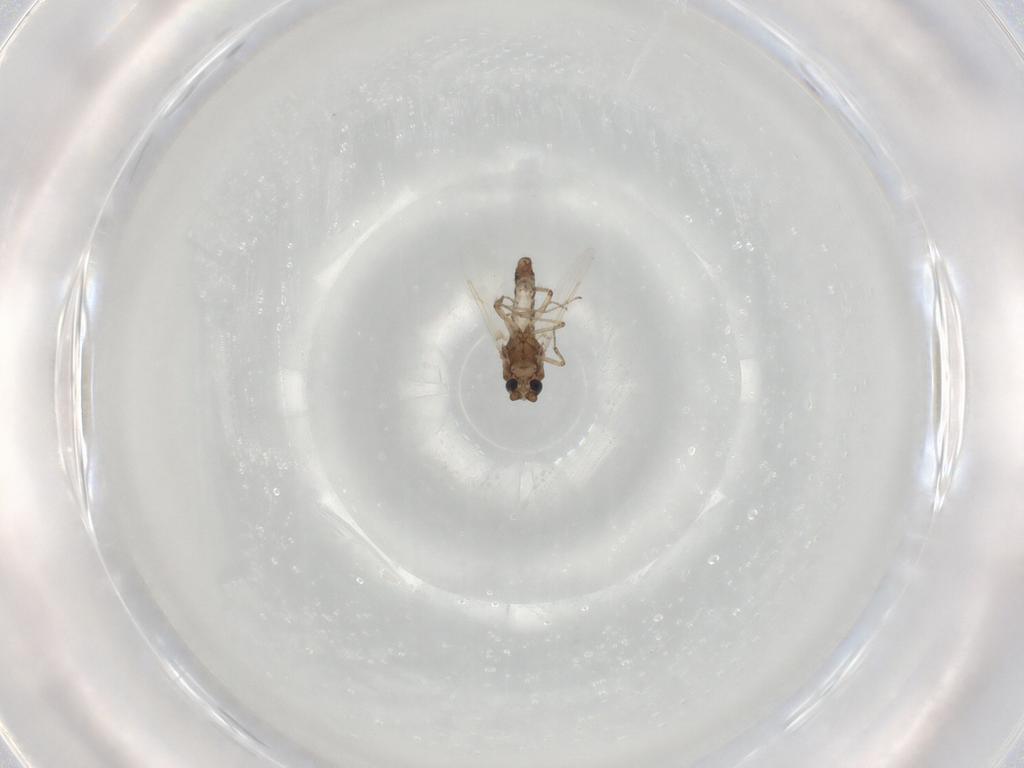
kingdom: Animalia
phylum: Arthropoda
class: Insecta
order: Diptera
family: Ceratopogonidae
